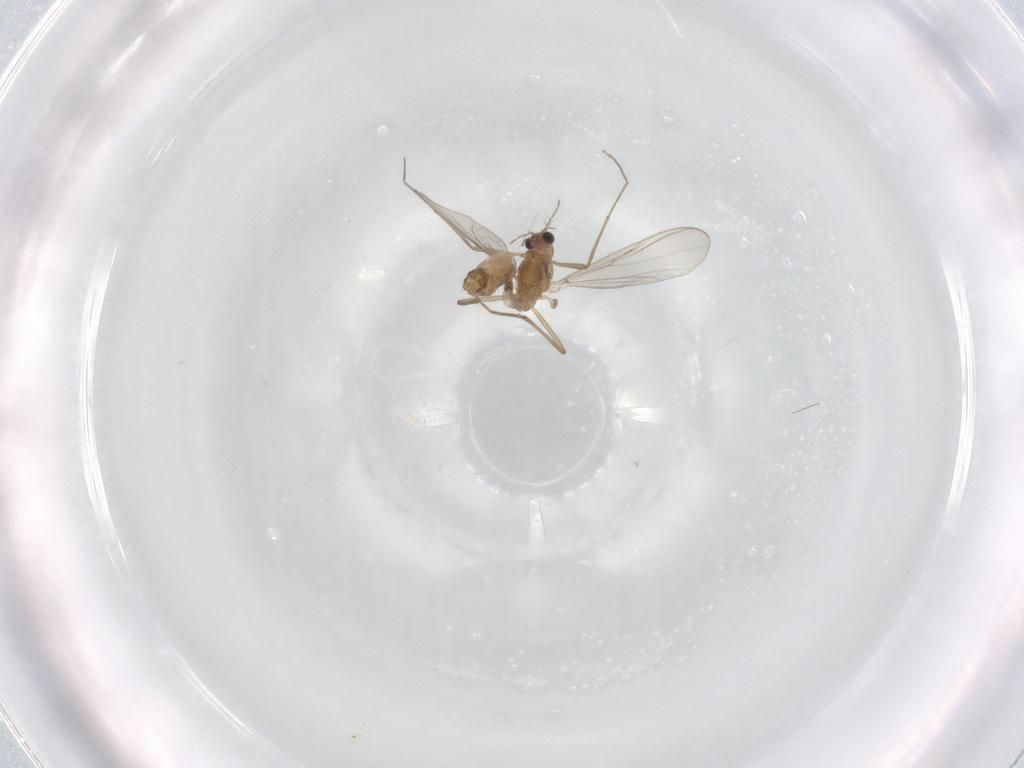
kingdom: Animalia
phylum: Arthropoda
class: Insecta
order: Diptera
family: Chironomidae
